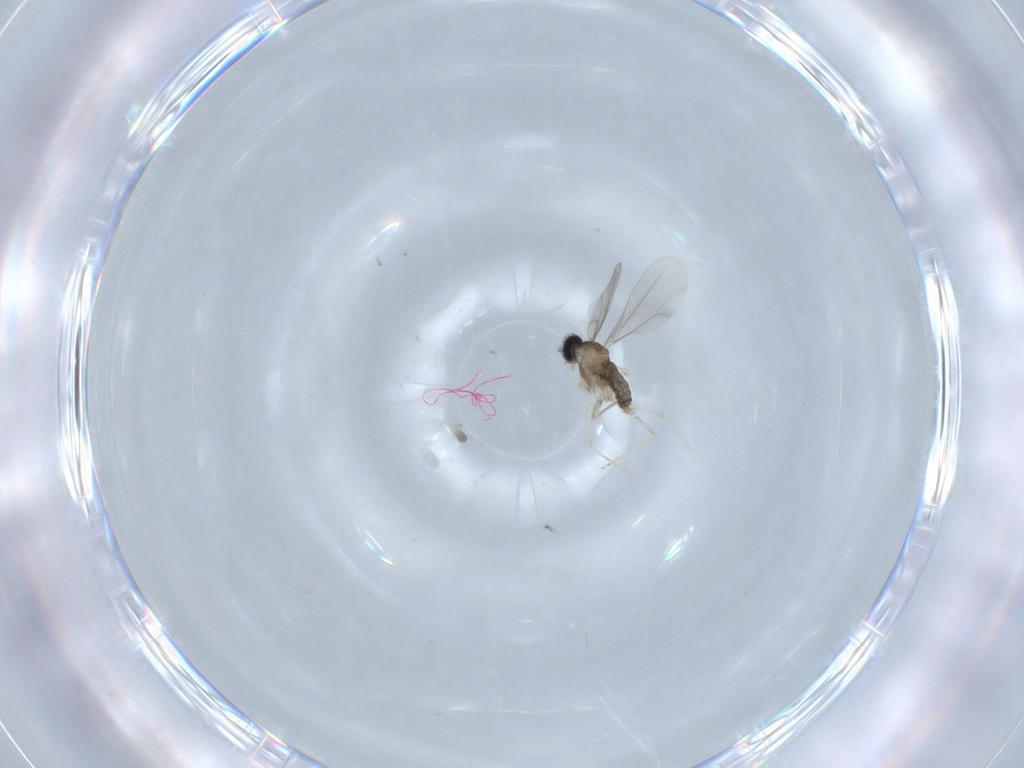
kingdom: Animalia
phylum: Arthropoda
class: Insecta
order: Diptera
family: Cecidomyiidae
